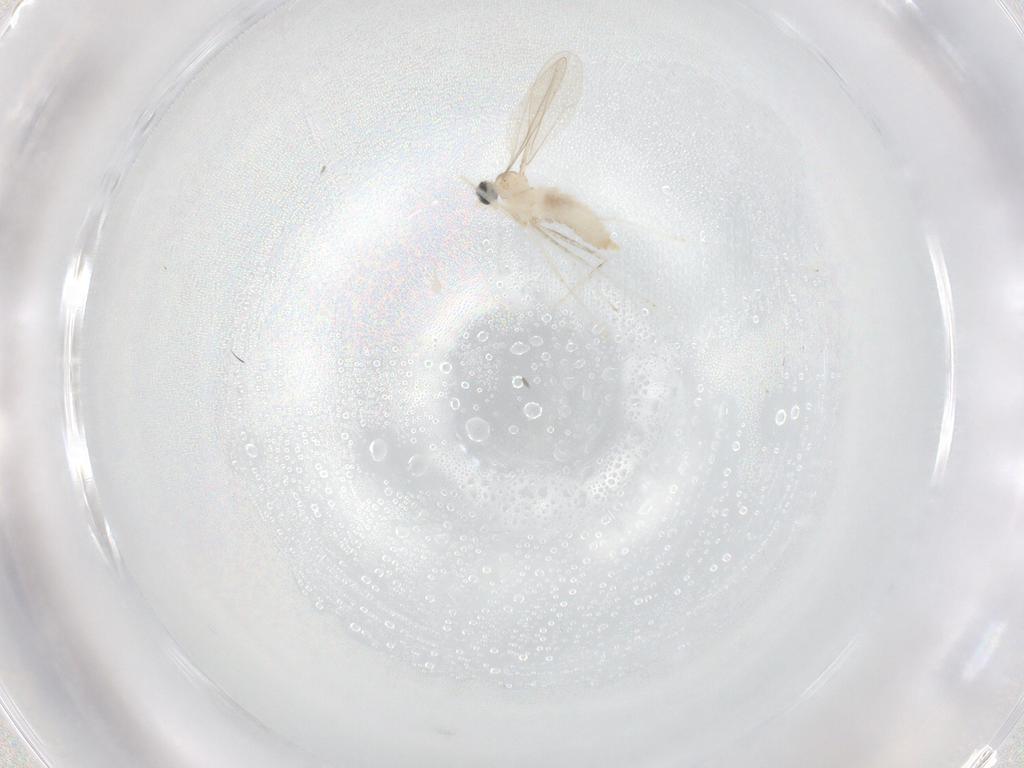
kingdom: Animalia
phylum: Arthropoda
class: Insecta
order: Diptera
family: Cecidomyiidae
